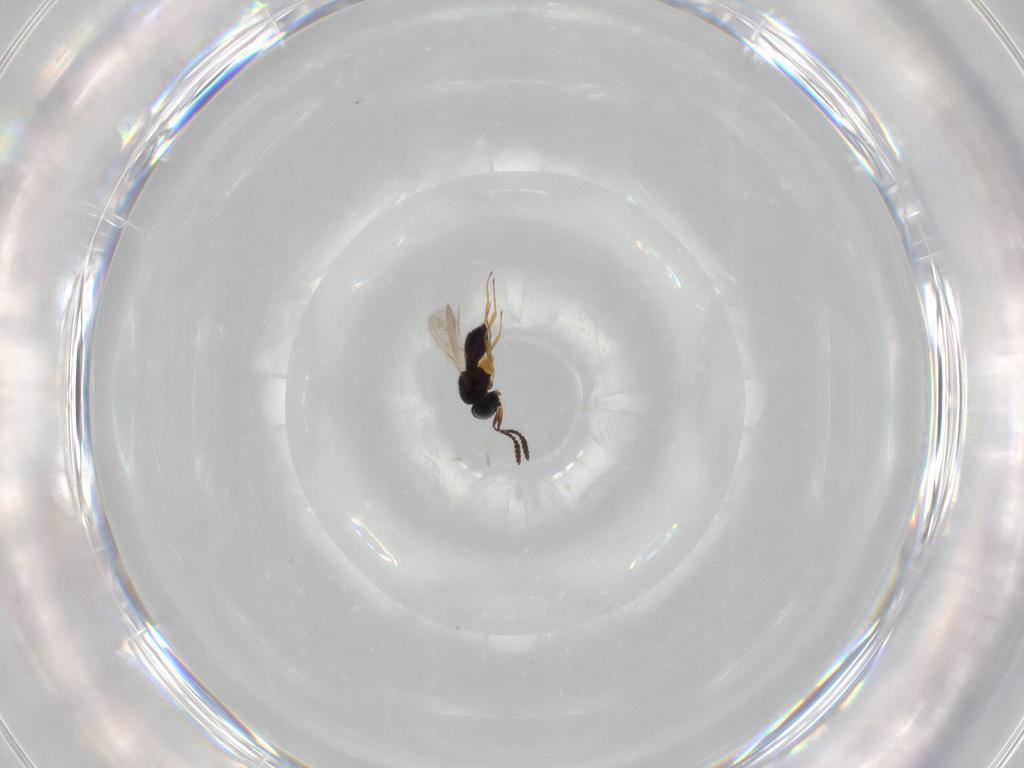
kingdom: Animalia
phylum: Arthropoda
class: Insecta
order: Hymenoptera
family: Scelionidae
